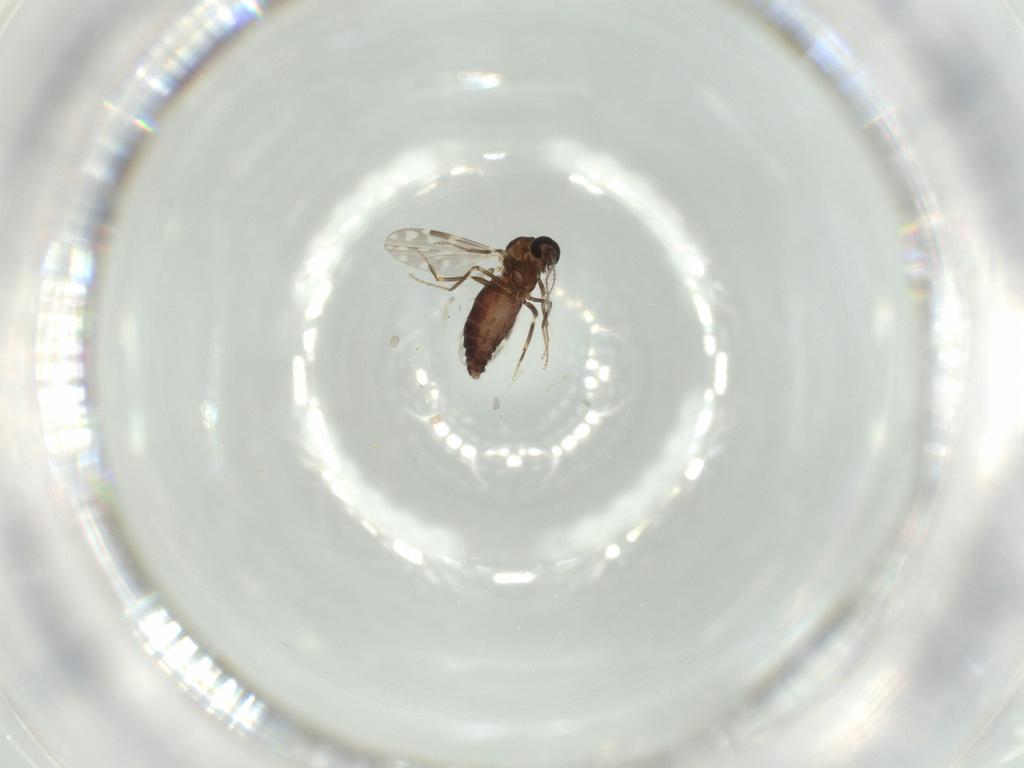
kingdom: Animalia
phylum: Arthropoda
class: Insecta
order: Diptera
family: Ceratopogonidae
